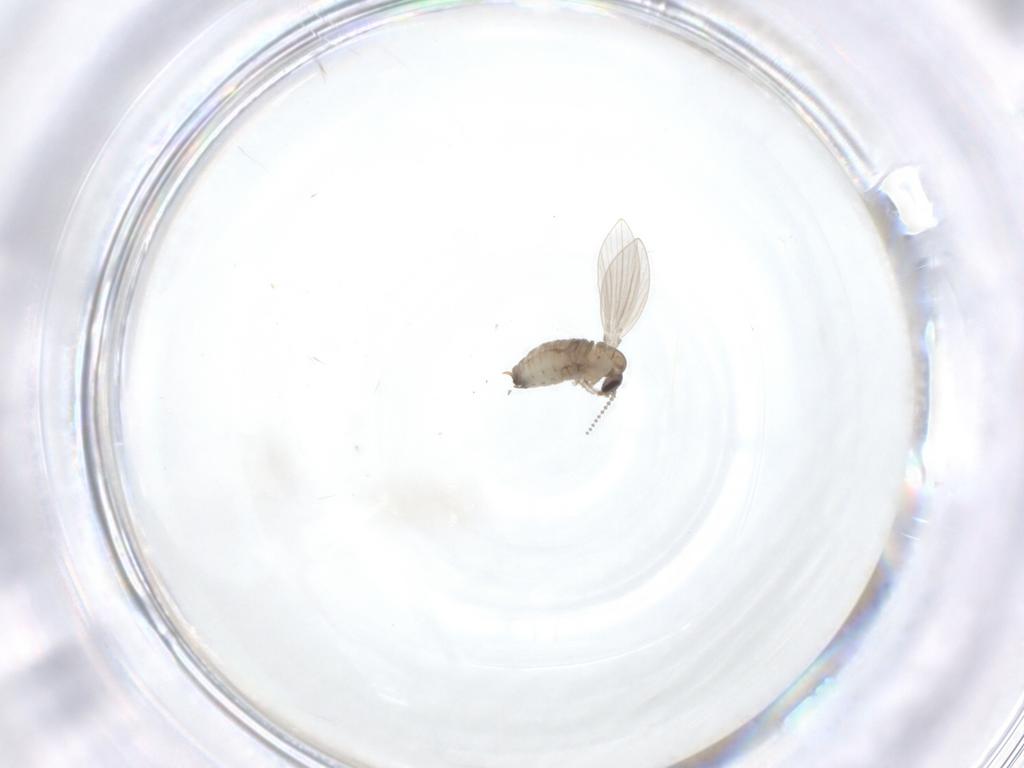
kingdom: Animalia
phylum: Arthropoda
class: Insecta
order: Diptera
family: Psychodidae
